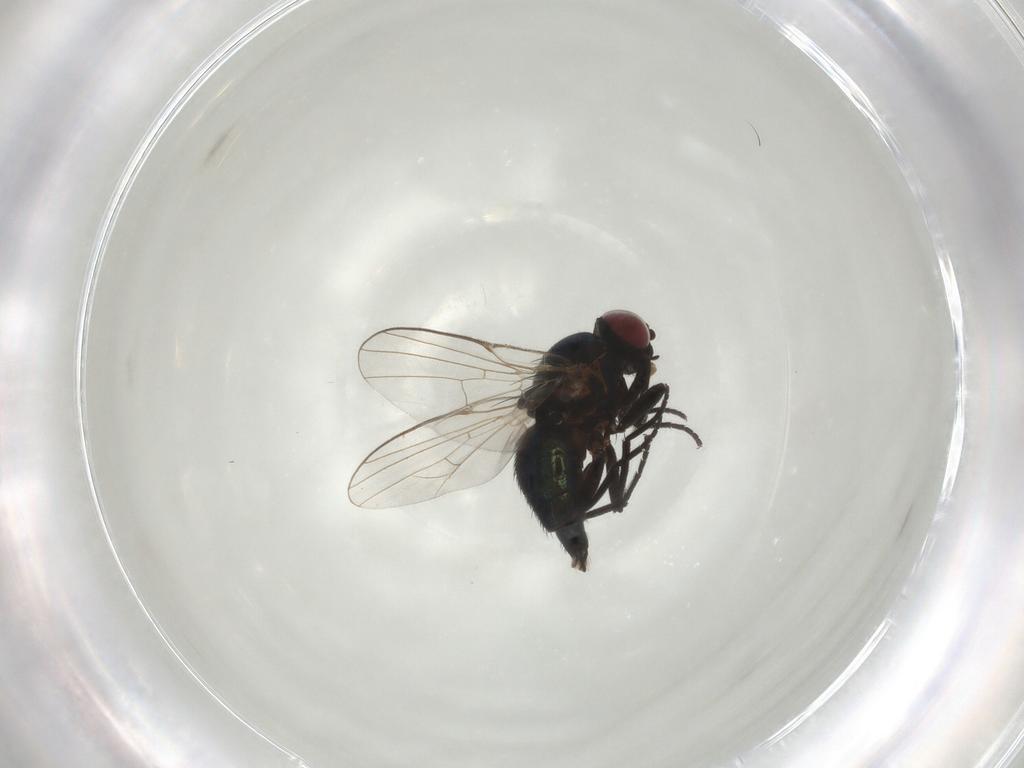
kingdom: Animalia
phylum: Arthropoda
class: Insecta
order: Diptera
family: Agromyzidae
